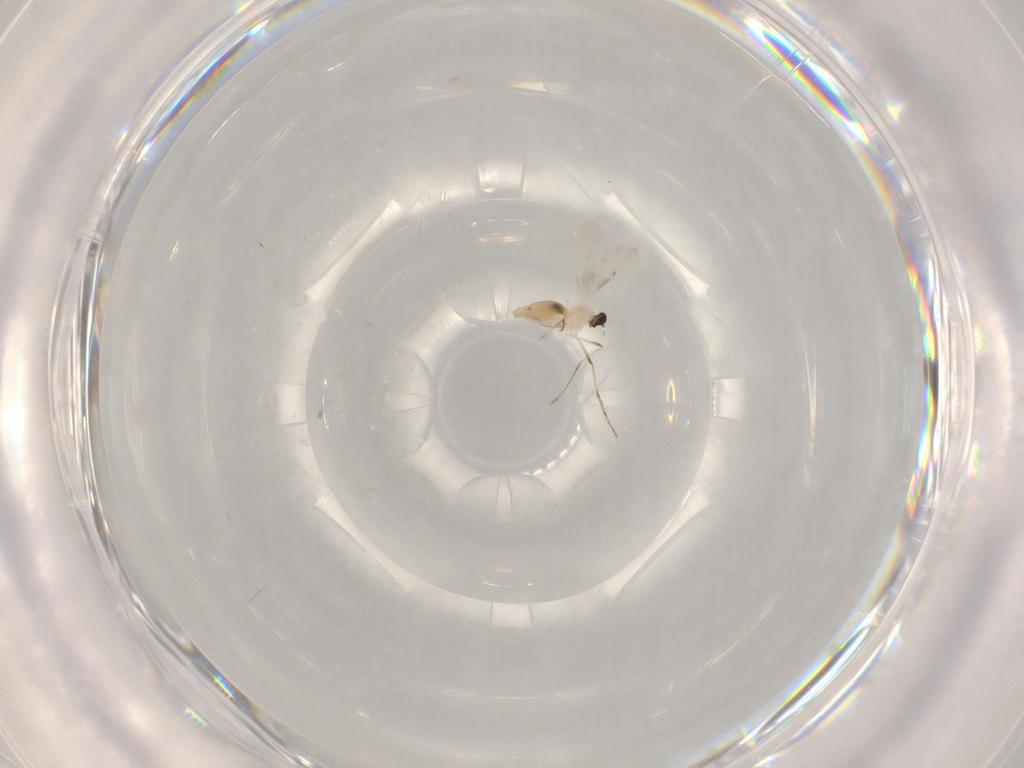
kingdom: Animalia
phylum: Arthropoda
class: Insecta
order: Diptera
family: Cecidomyiidae
